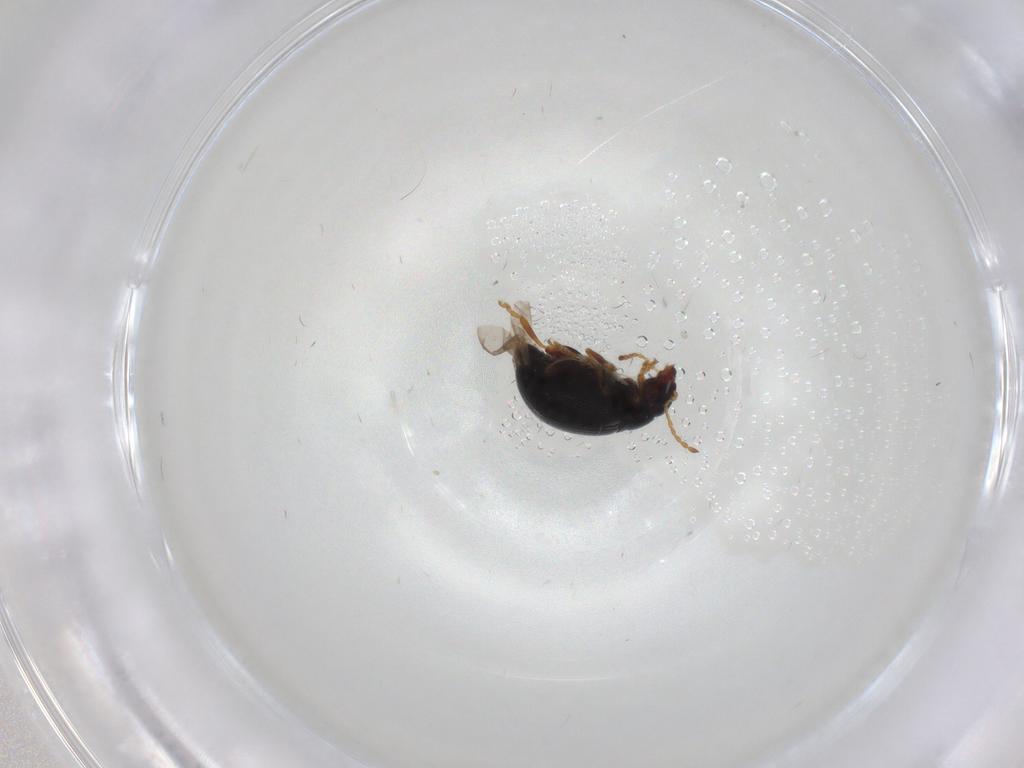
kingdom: Animalia
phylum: Arthropoda
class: Insecta
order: Coleoptera
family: Chrysomelidae
